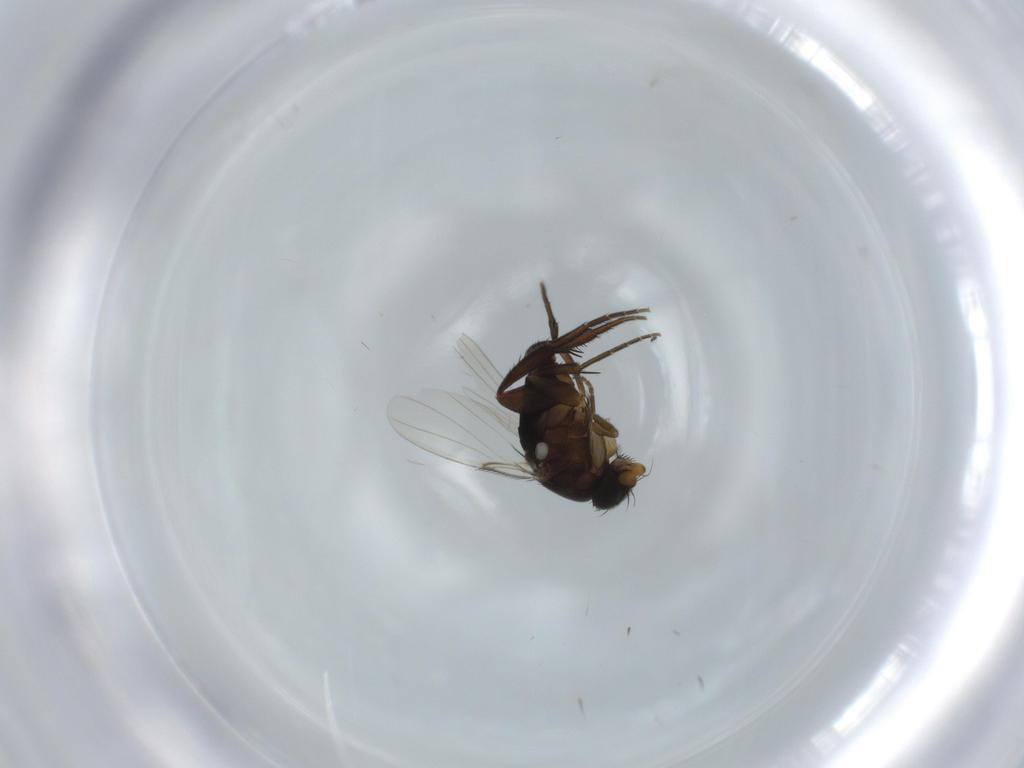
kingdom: Animalia
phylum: Arthropoda
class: Insecta
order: Diptera
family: Phoridae
